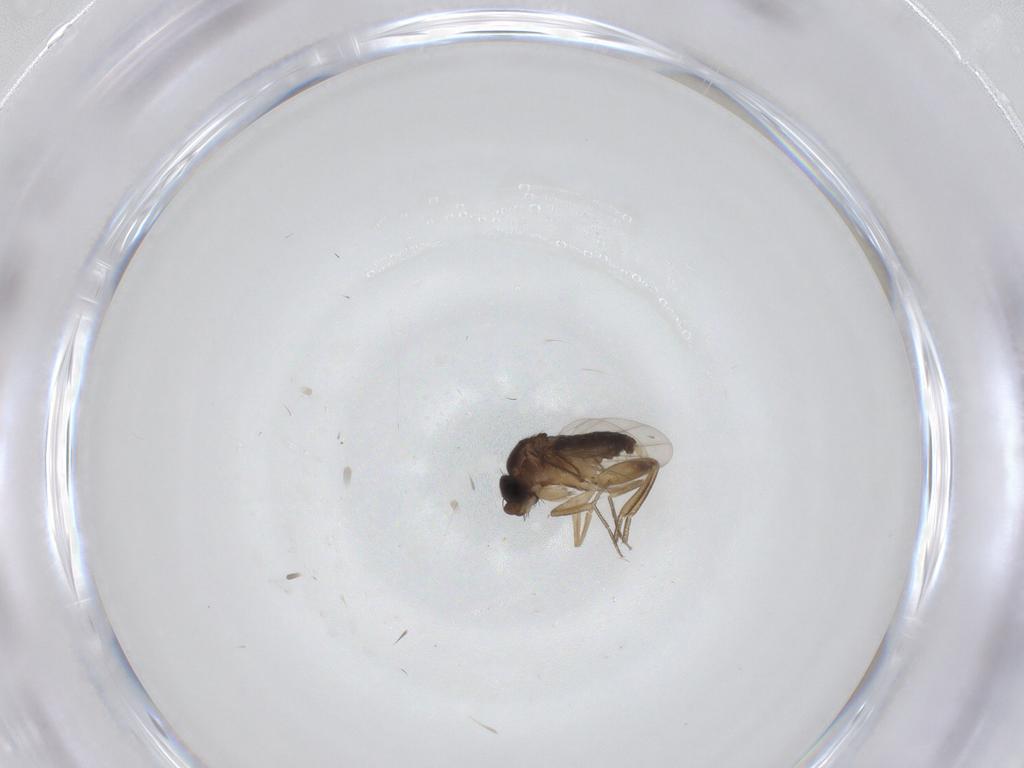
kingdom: Animalia
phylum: Arthropoda
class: Insecta
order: Diptera
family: Phoridae
